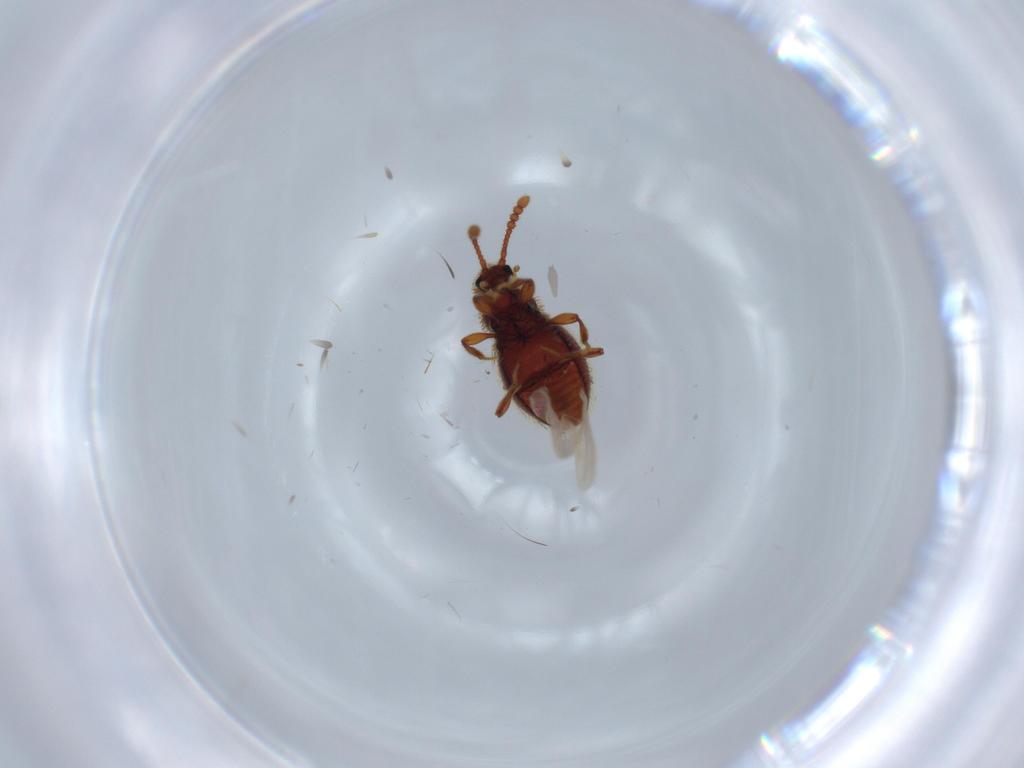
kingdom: Animalia
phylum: Arthropoda
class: Insecta
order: Coleoptera
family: Ptilodactylidae
